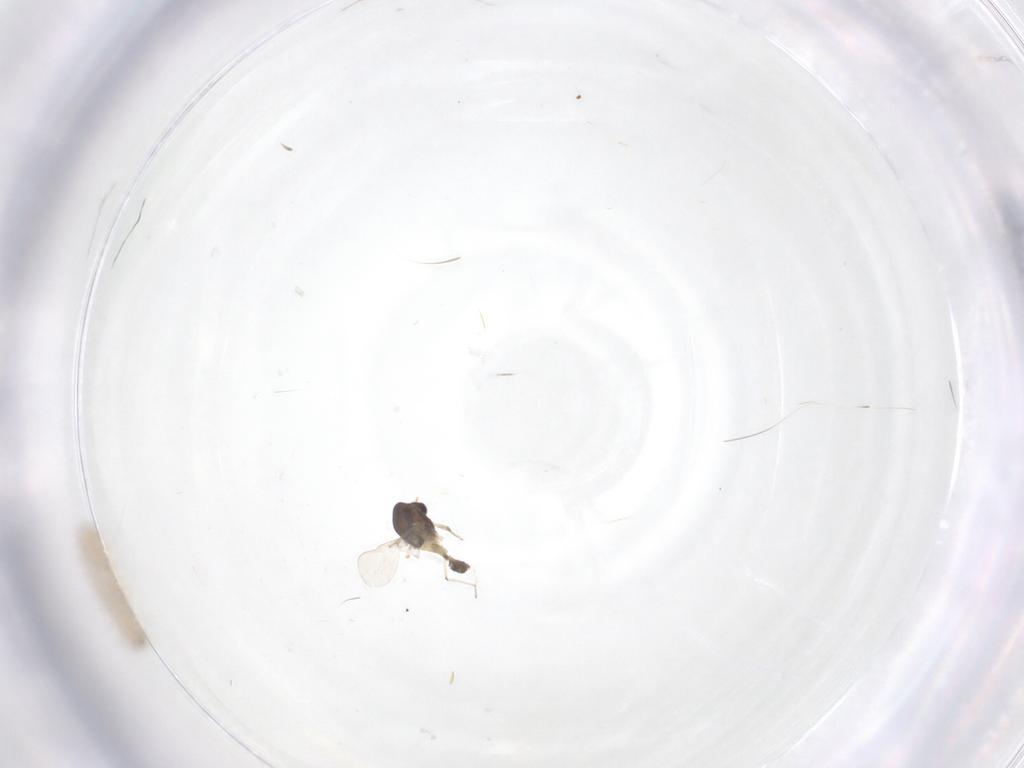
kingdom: Animalia
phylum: Arthropoda
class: Insecta
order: Diptera
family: Chironomidae
